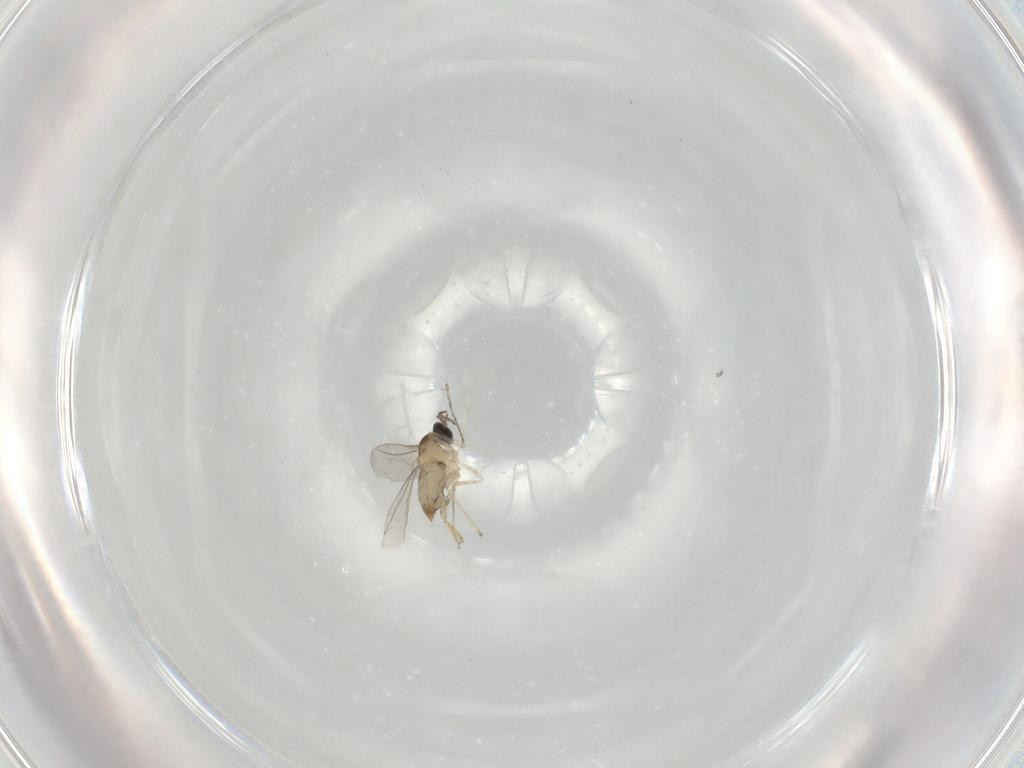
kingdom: Animalia
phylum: Arthropoda
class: Insecta
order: Diptera
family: Cecidomyiidae
